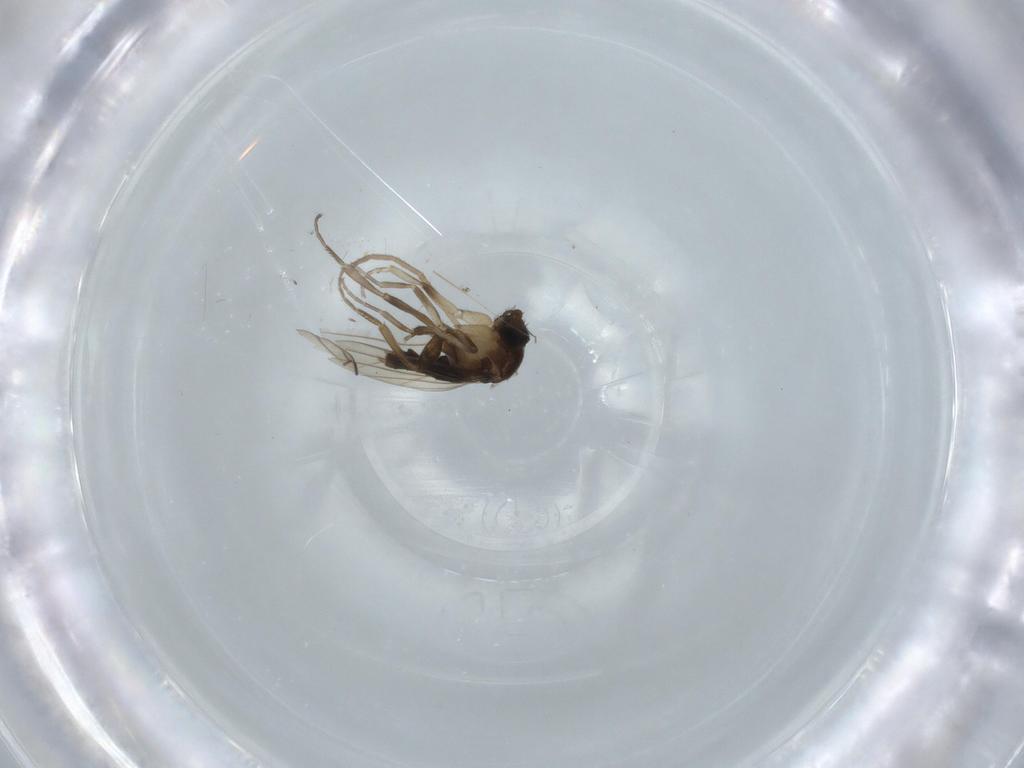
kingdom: Animalia
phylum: Arthropoda
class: Insecta
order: Diptera
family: Phoridae
